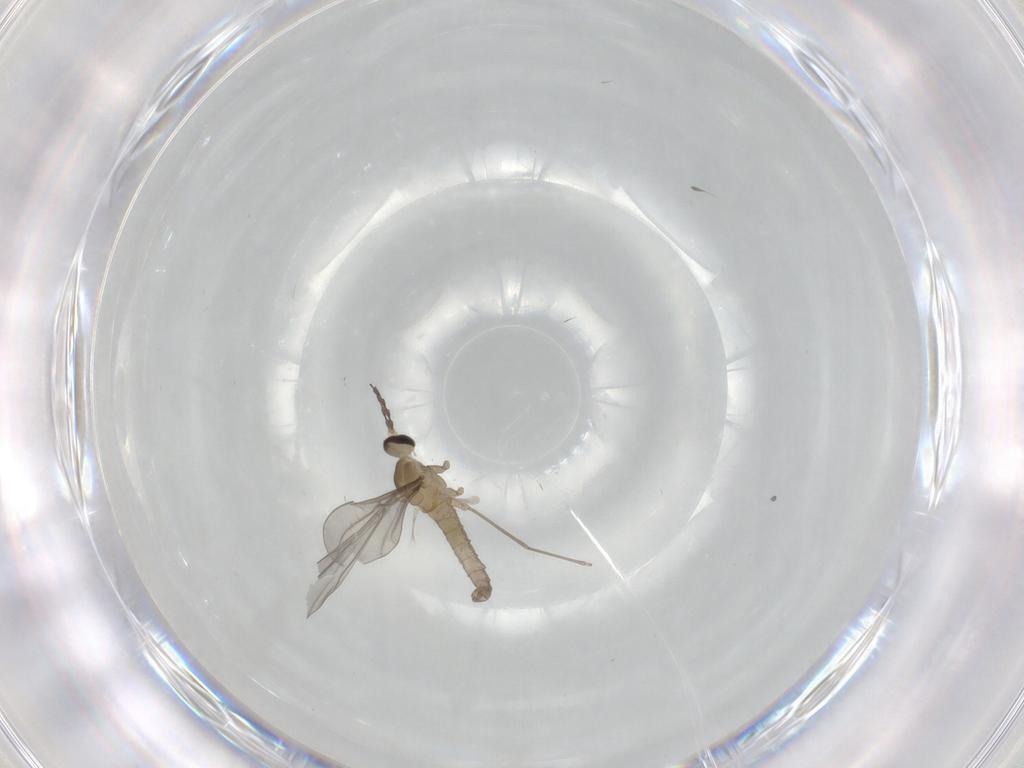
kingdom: Animalia
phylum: Arthropoda
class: Insecta
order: Diptera
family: Cecidomyiidae
